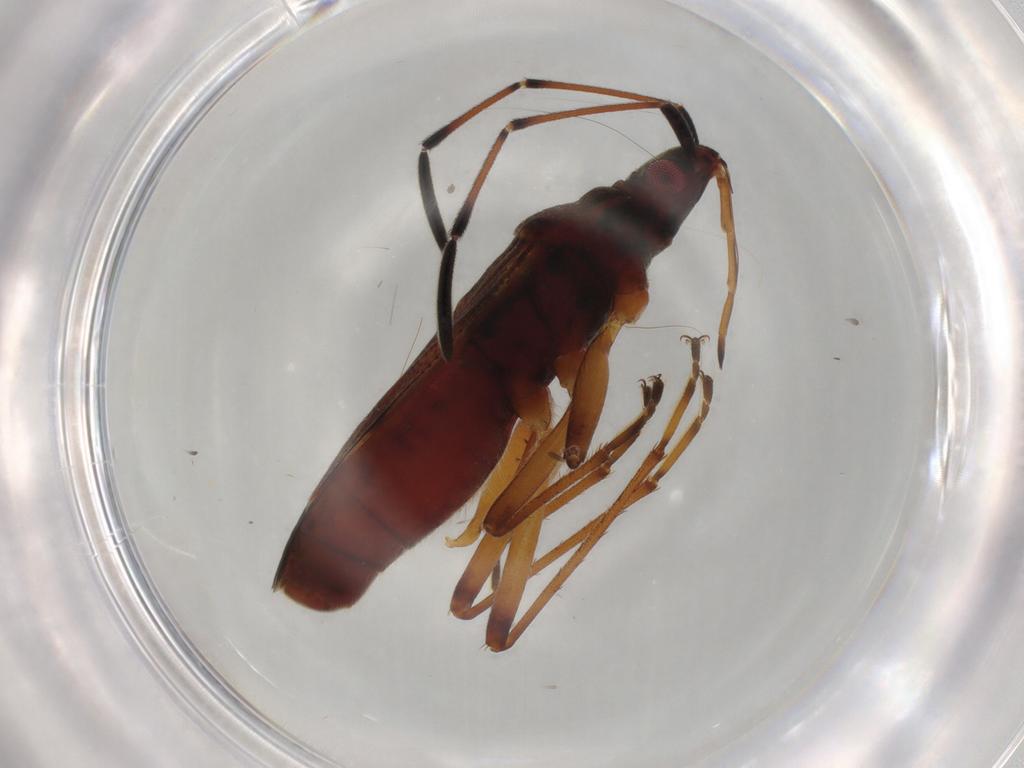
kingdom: Animalia
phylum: Arthropoda
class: Insecta
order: Hemiptera
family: Rhyparochromidae
